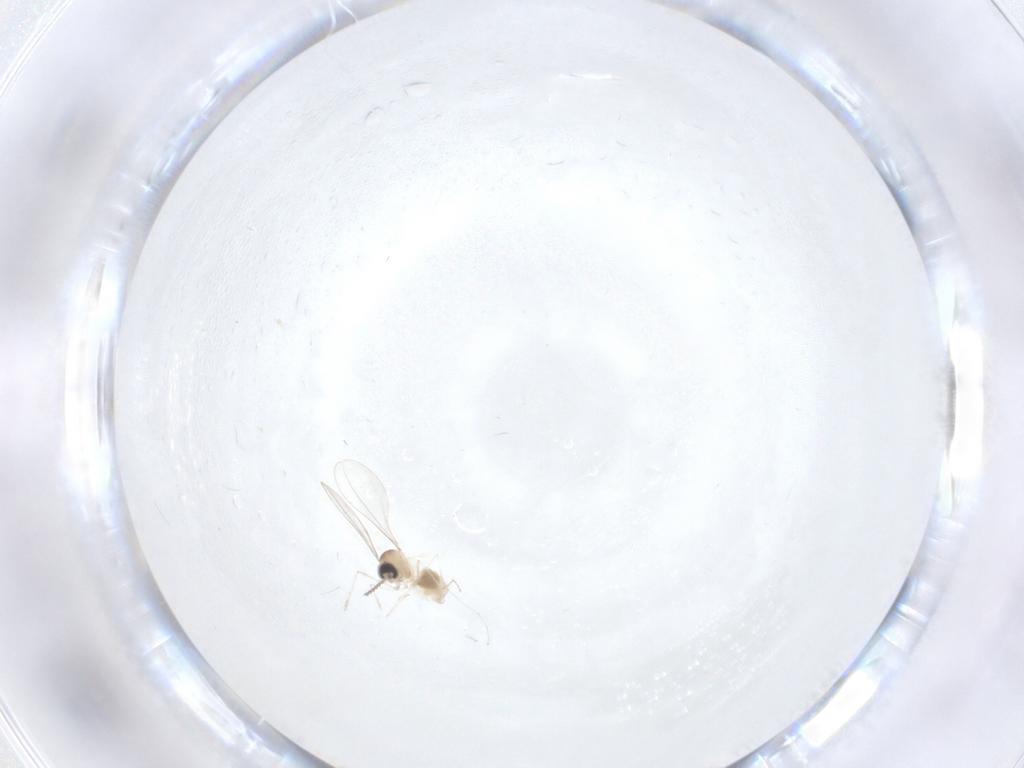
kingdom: Animalia
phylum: Arthropoda
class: Insecta
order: Diptera
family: Cecidomyiidae
